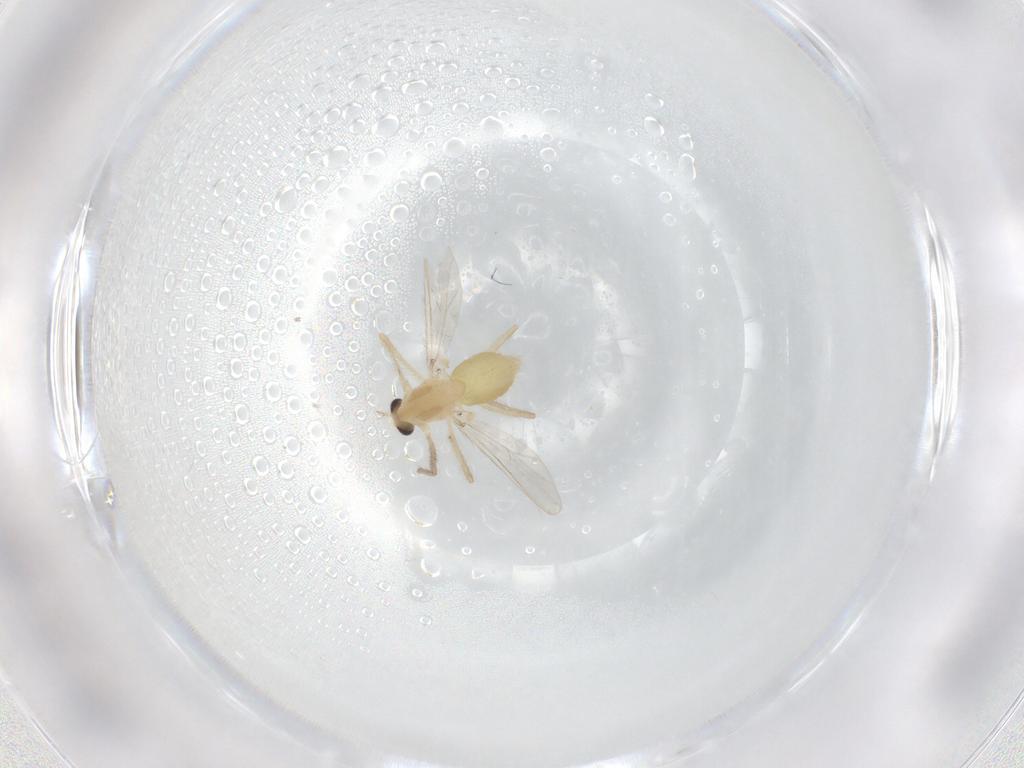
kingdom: Animalia
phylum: Arthropoda
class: Insecta
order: Diptera
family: Chironomidae
